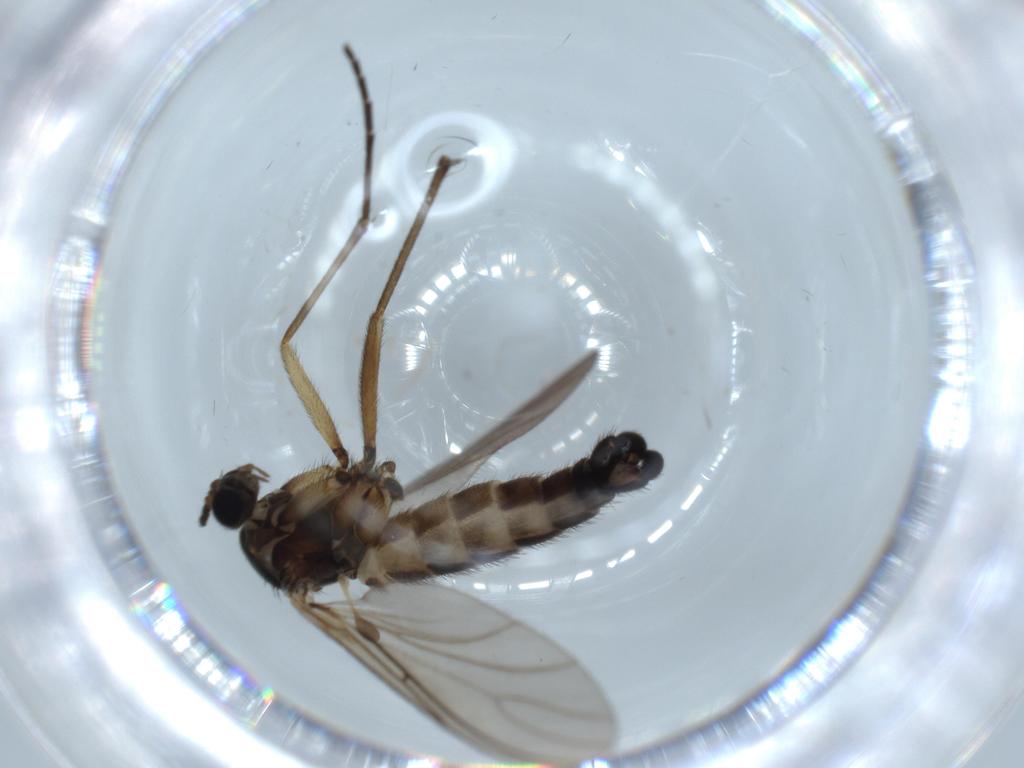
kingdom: Animalia
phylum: Arthropoda
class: Insecta
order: Diptera
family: Sciaridae
